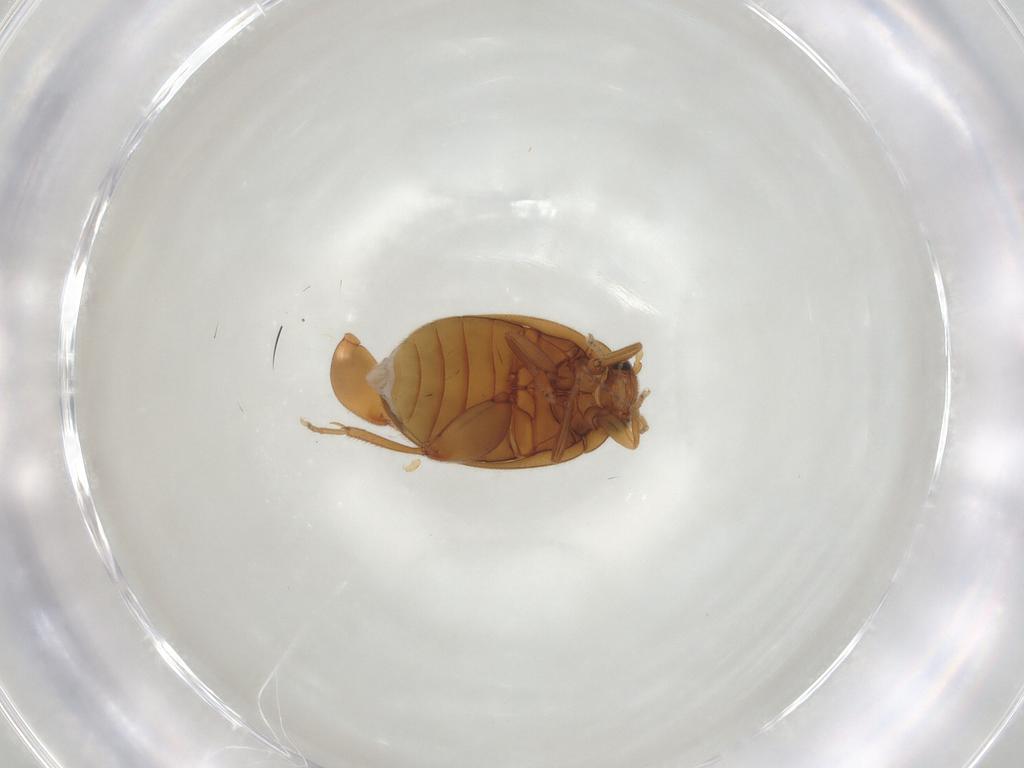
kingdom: Animalia
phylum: Arthropoda
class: Insecta
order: Coleoptera
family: Scirtidae
